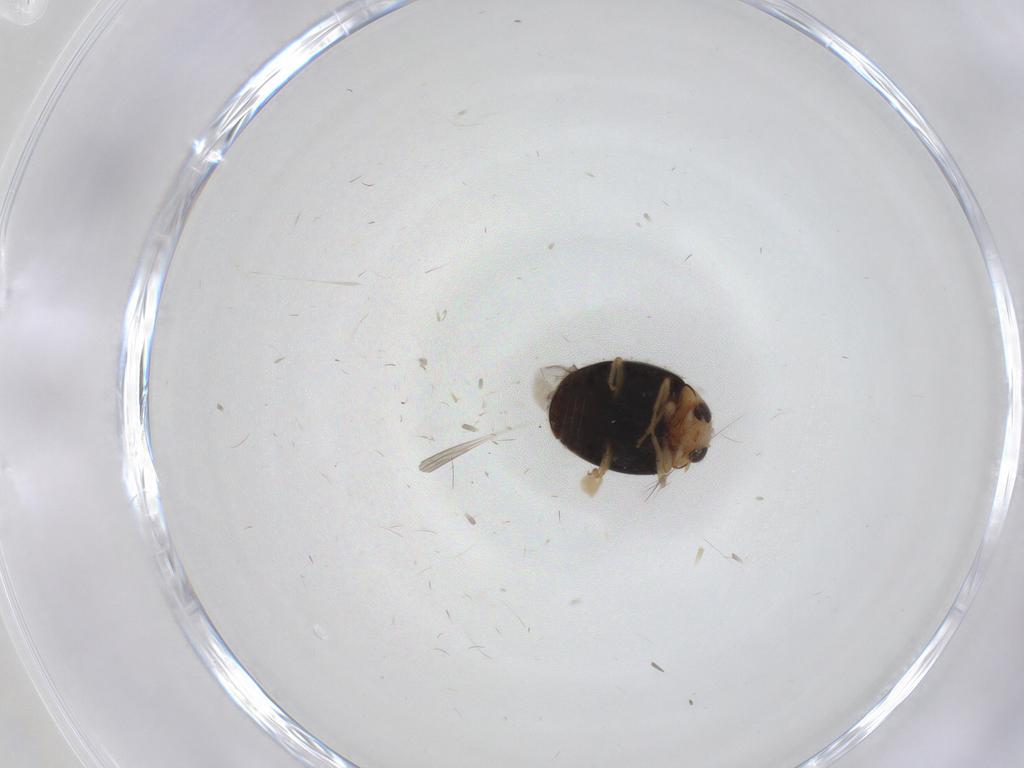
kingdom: Animalia
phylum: Arthropoda
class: Insecta
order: Coleoptera
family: Coccinellidae
